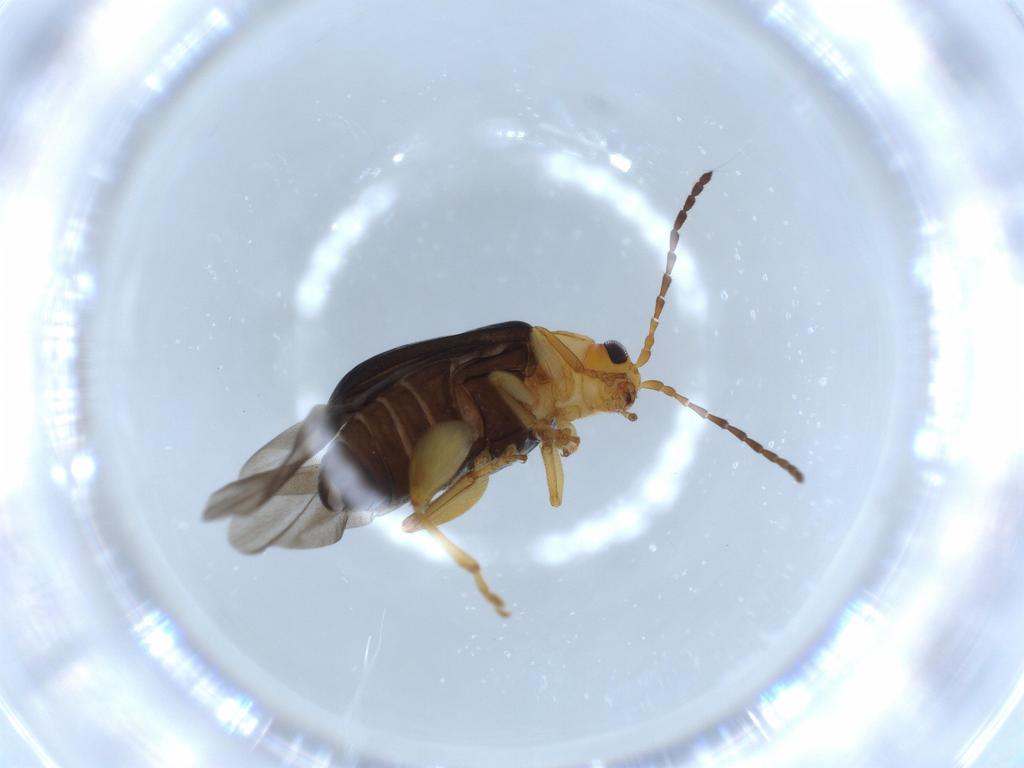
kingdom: Animalia
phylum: Arthropoda
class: Insecta
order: Coleoptera
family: Chrysomelidae
